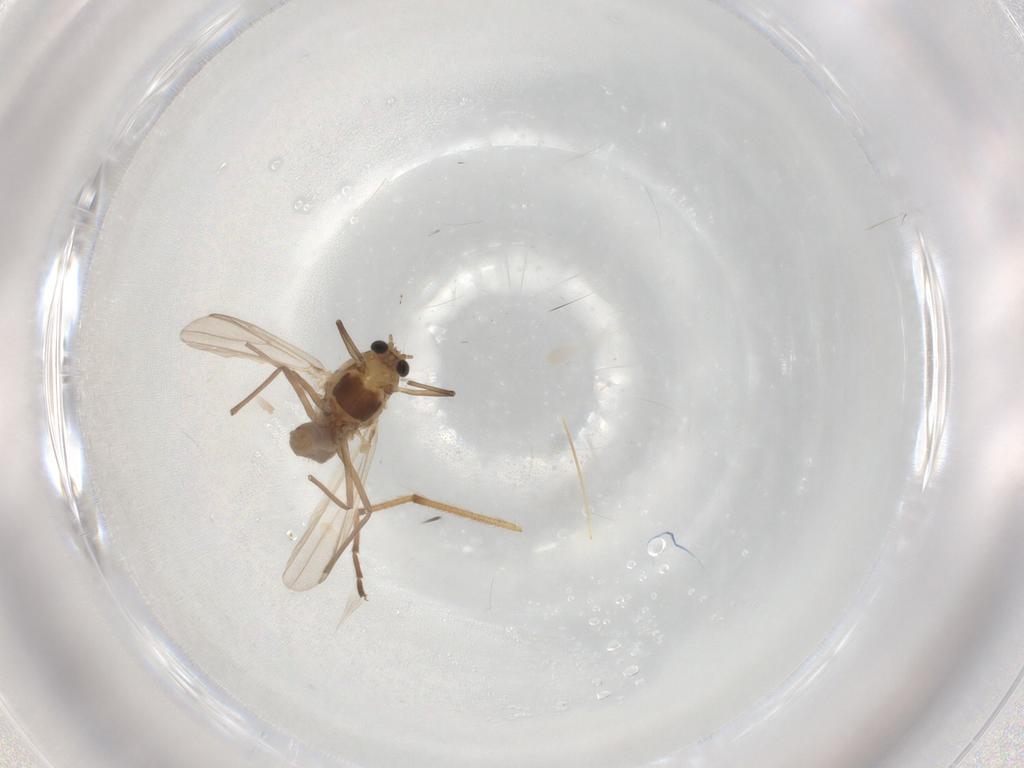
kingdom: Animalia
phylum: Arthropoda
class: Insecta
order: Diptera
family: Chironomidae
